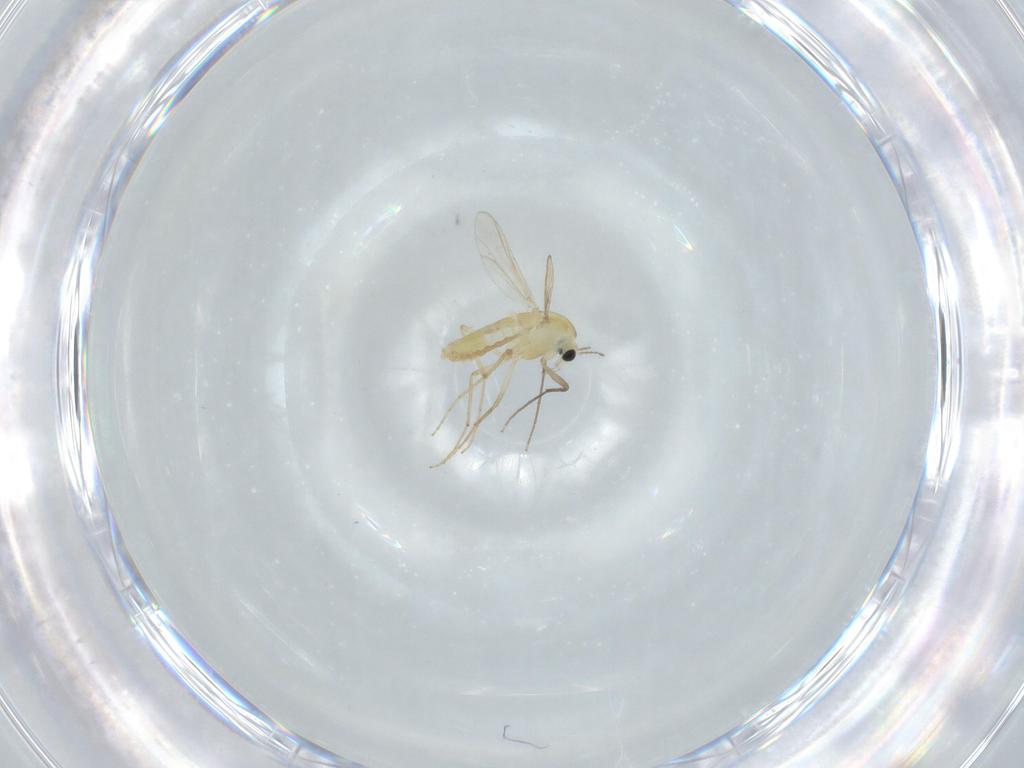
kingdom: Animalia
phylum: Arthropoda
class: Insecta
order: Diptera
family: Chironomidae
